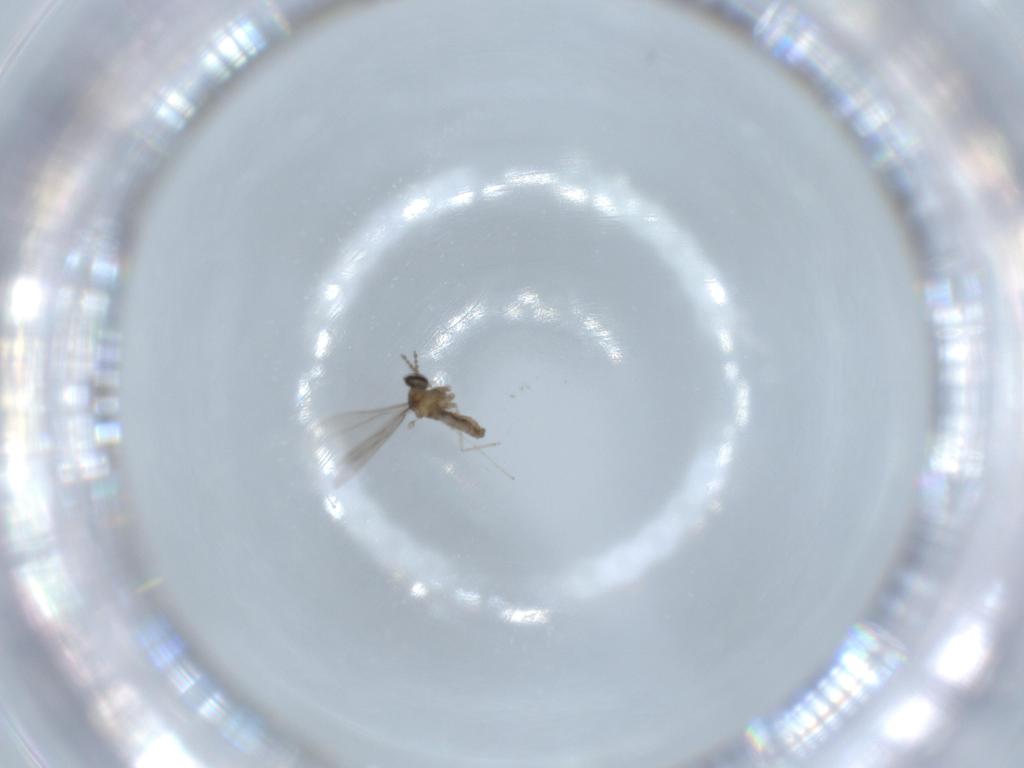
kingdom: Animalia
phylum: Arthropoda
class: Insecta
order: Diptera
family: Cecidomyiidae
